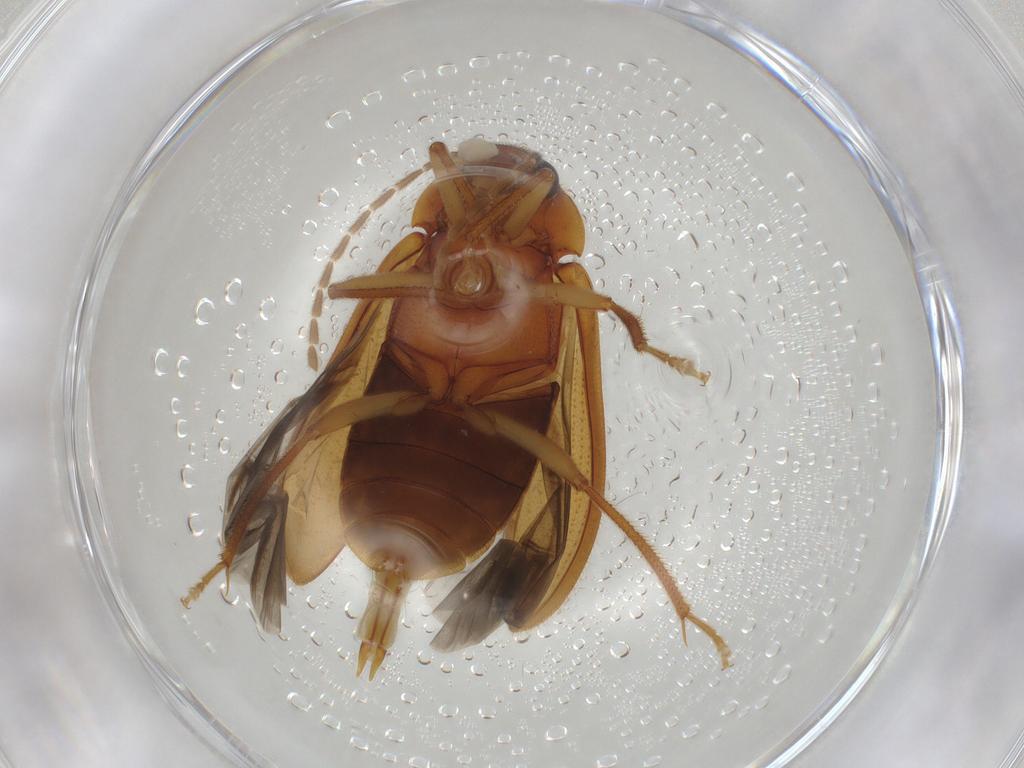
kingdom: Animalia
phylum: Arthropoda
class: Insecta
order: Coleoptera
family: Ptilodactylidae
